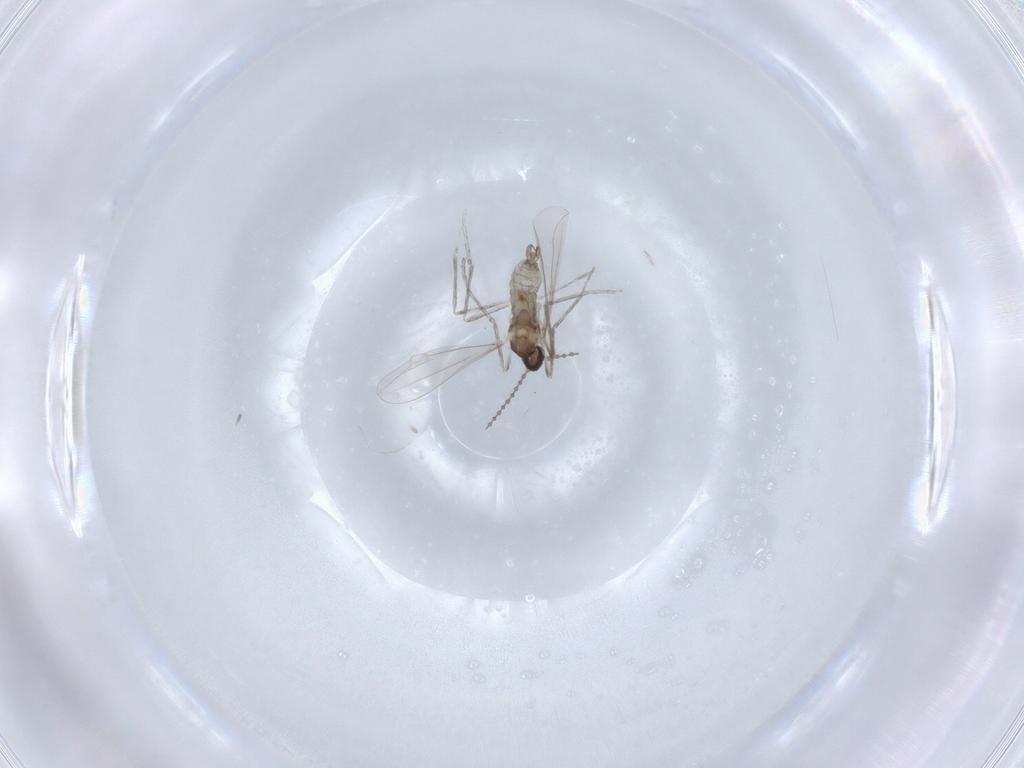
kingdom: Animalia
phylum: Arthropoda
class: Insecta
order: Diptera
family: Cecidomyiidae
